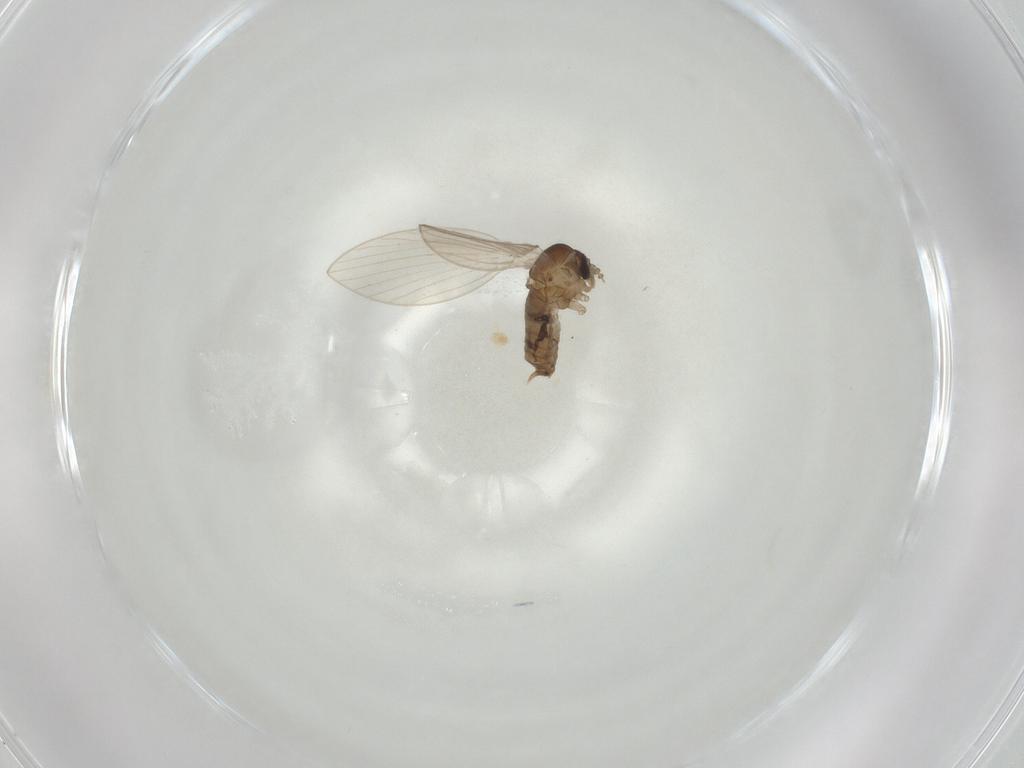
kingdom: Animalia
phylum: Arthropoda
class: Insecta
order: Diptera
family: Psychodidae
